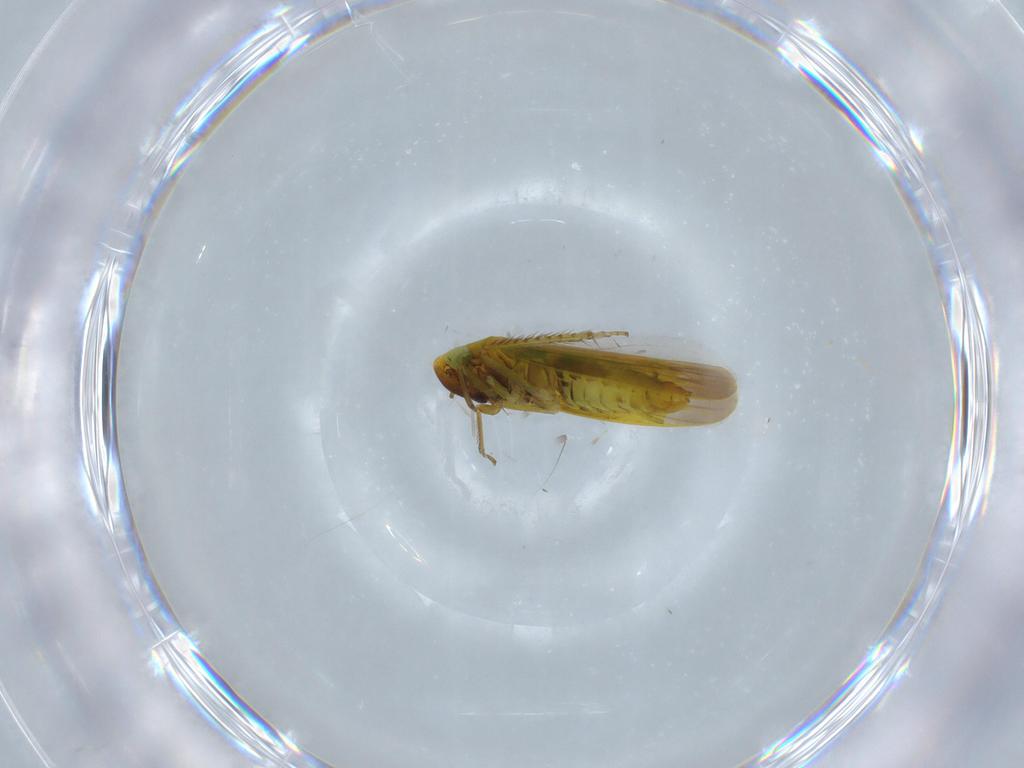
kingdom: Animalia
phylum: Arthropoda
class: Insecta
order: Hemiptera
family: Cicadellidae
